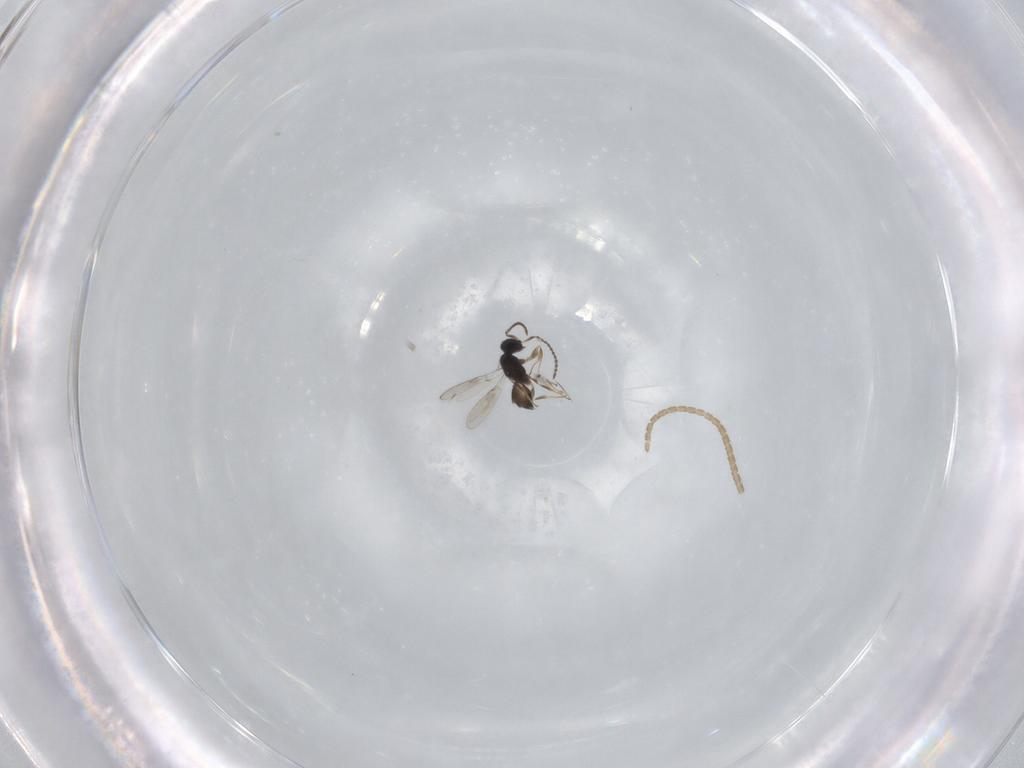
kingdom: Animalia
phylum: Arthropoda
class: Insecta
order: Hymenoptera
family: Scelionidae
